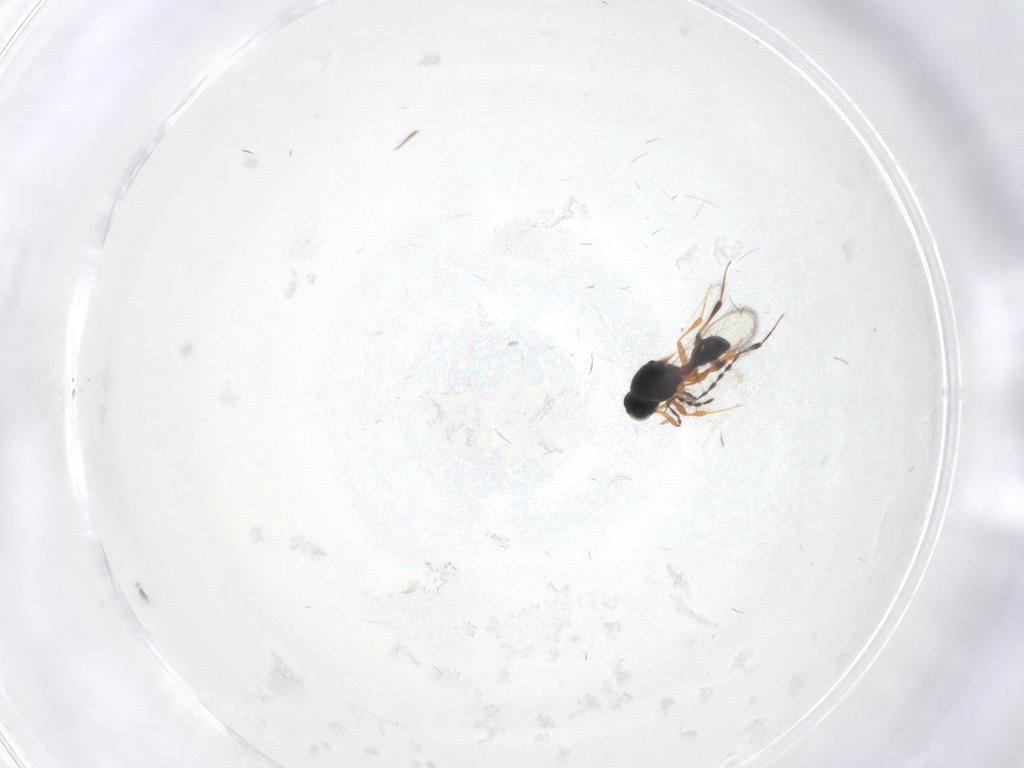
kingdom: Animalia
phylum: Arthropoda
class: Insecta
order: Hymenoptera
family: Platygastridae
